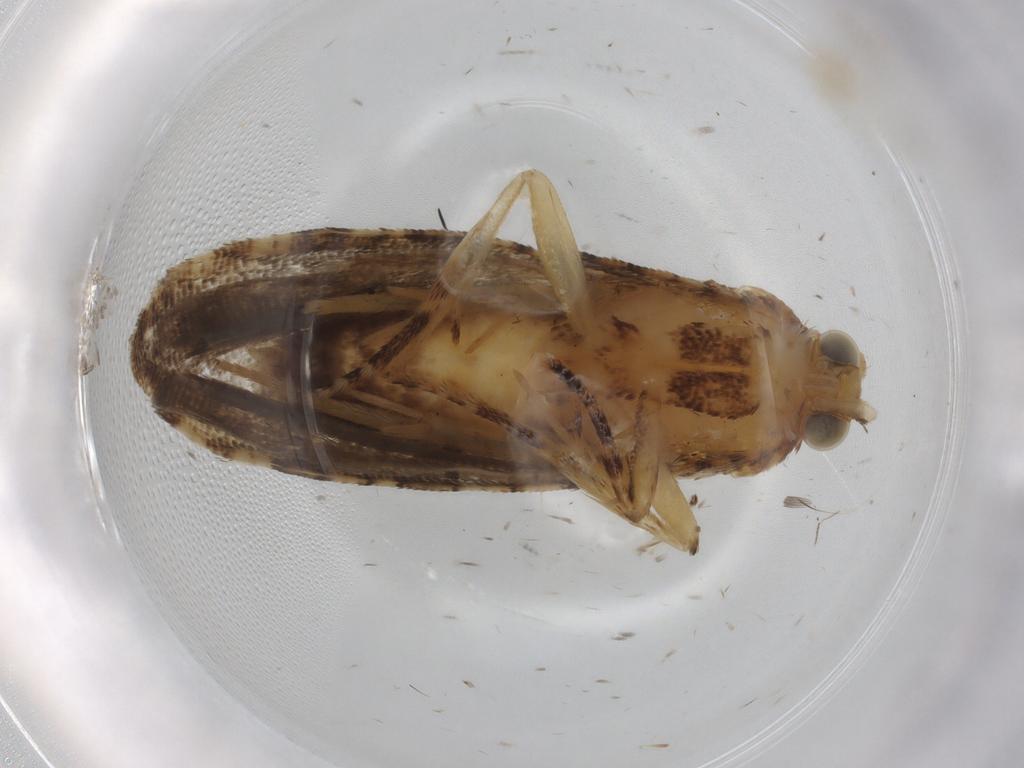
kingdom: Animalia
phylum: Arthropoda
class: Insecta
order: Lepidoptera
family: Tortricidae
